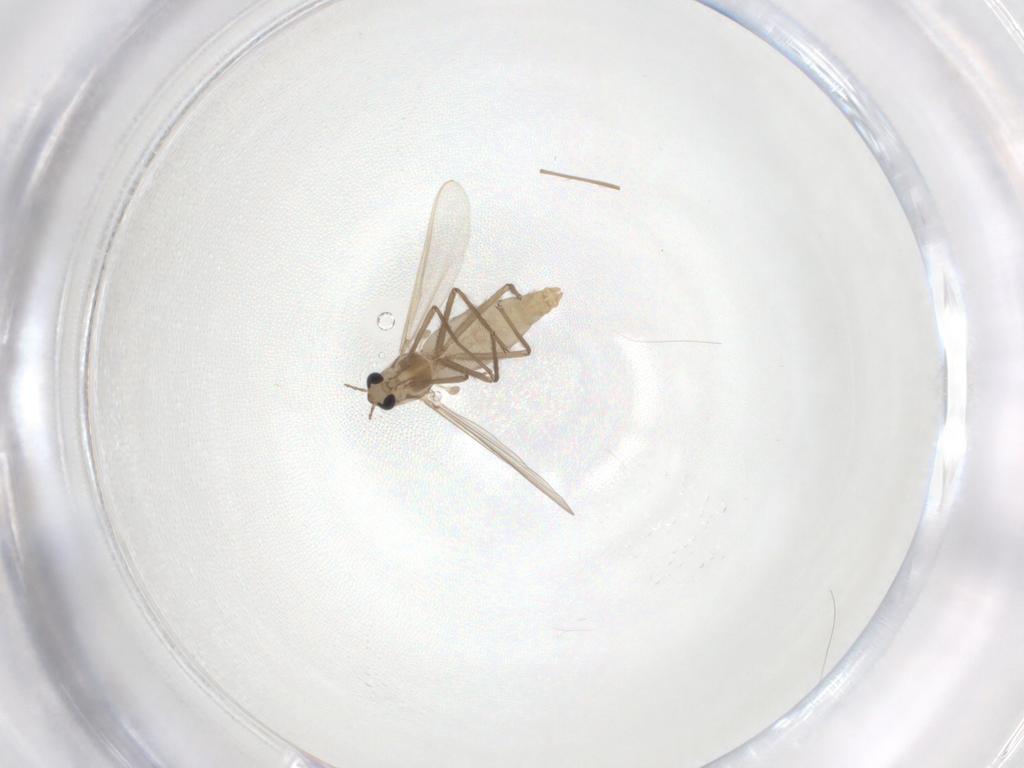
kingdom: Animalia
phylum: Arthropoda
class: Insecta
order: Diptera
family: Chironomidae
